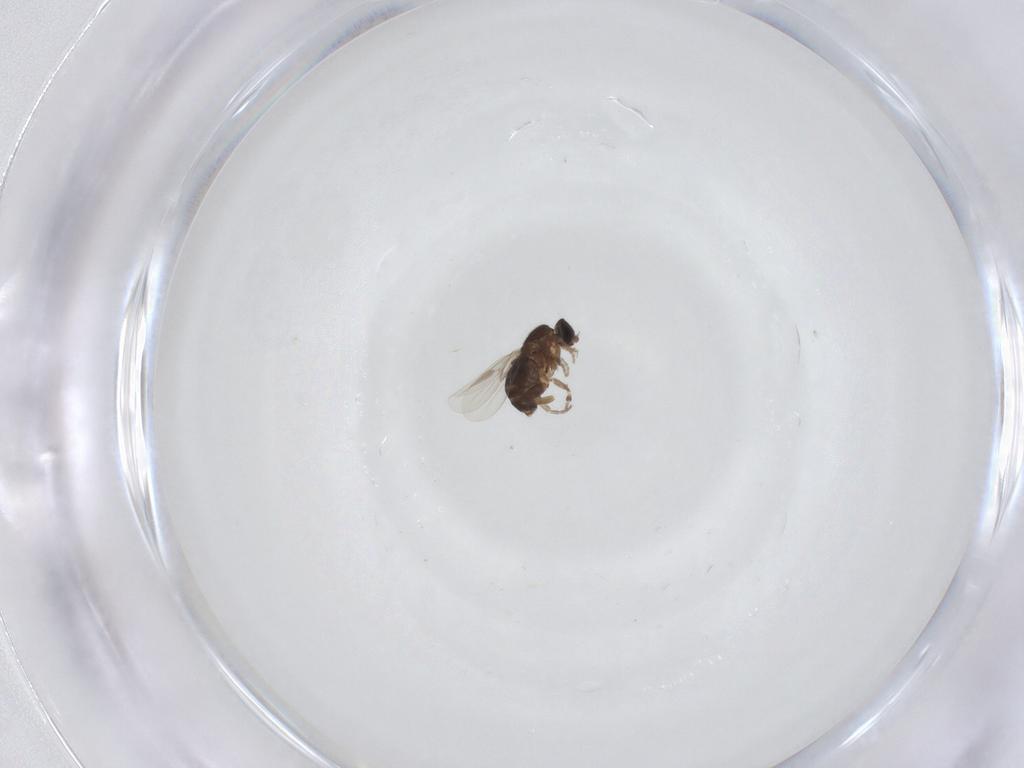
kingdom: Animalia
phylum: Arthropoda
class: Insecta
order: Diptera
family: Phoridae
